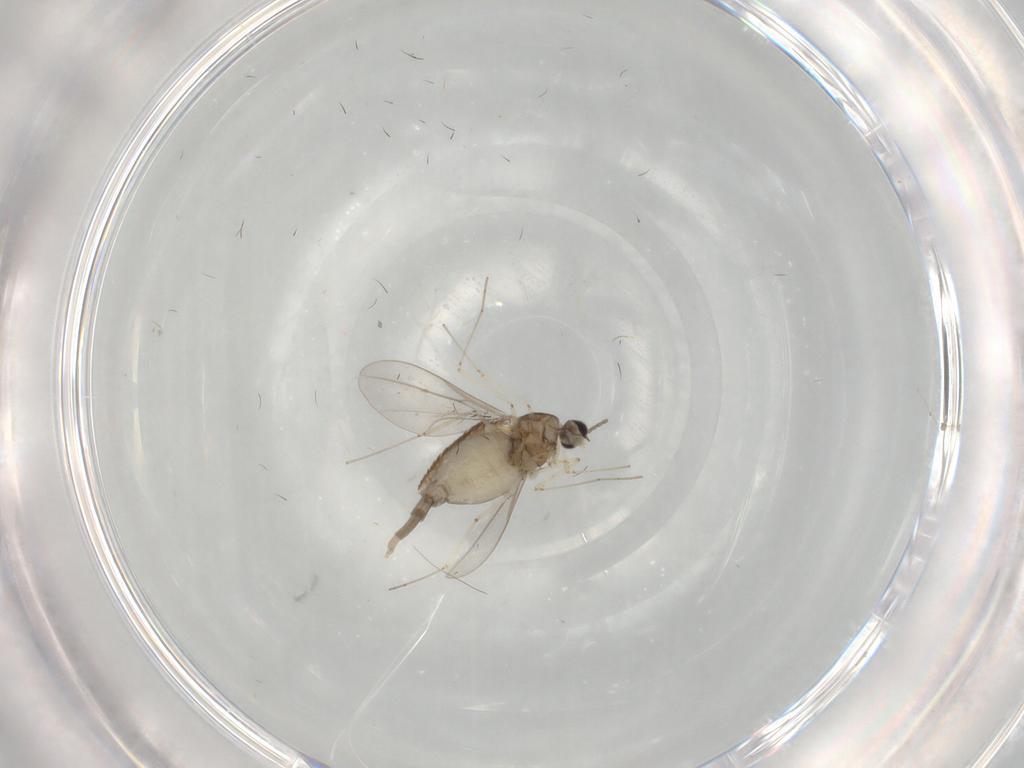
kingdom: Animalia
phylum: Arthropoda
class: Insecta
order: Diptera
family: Cecidomyiidae
